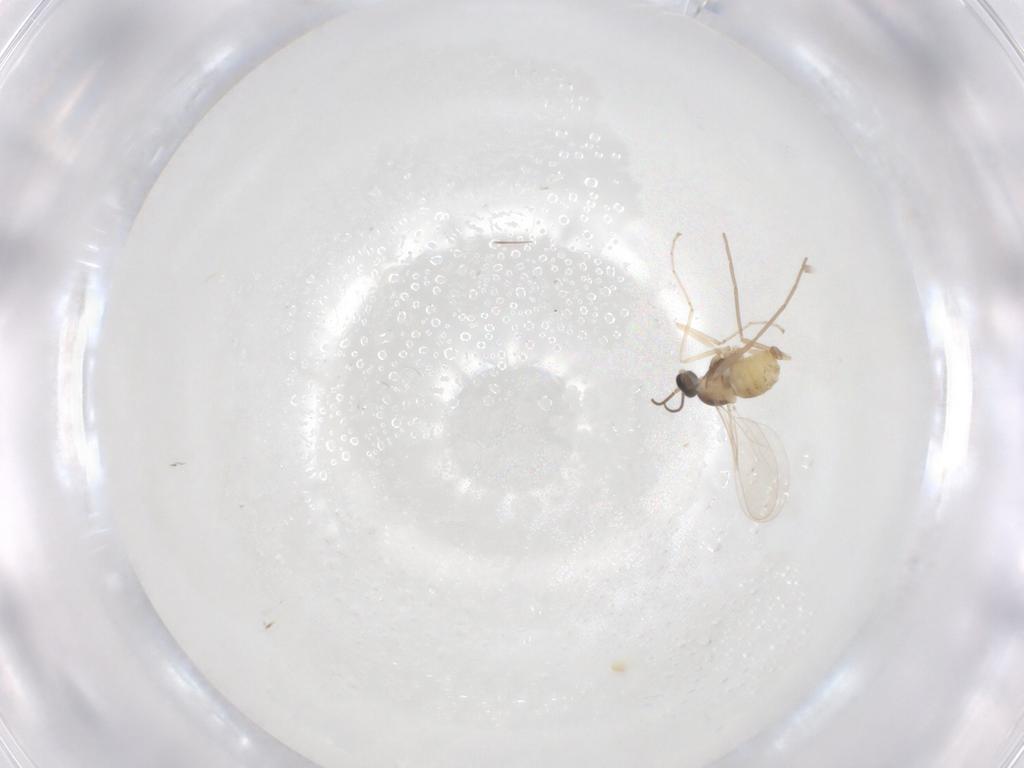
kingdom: Animalia
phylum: Arthropoda
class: Insecta
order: Diptera
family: Cecidomyiidae
